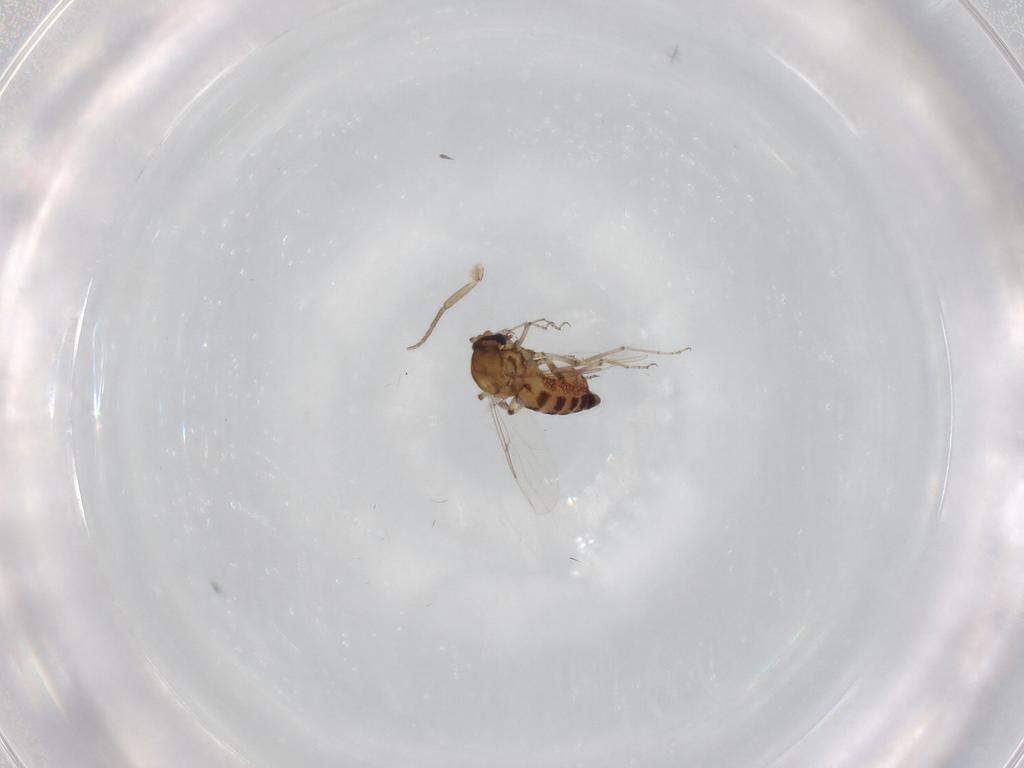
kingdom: Animalia
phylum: Arthropoda
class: Insecta
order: Diptera
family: Ceratopogonidae
